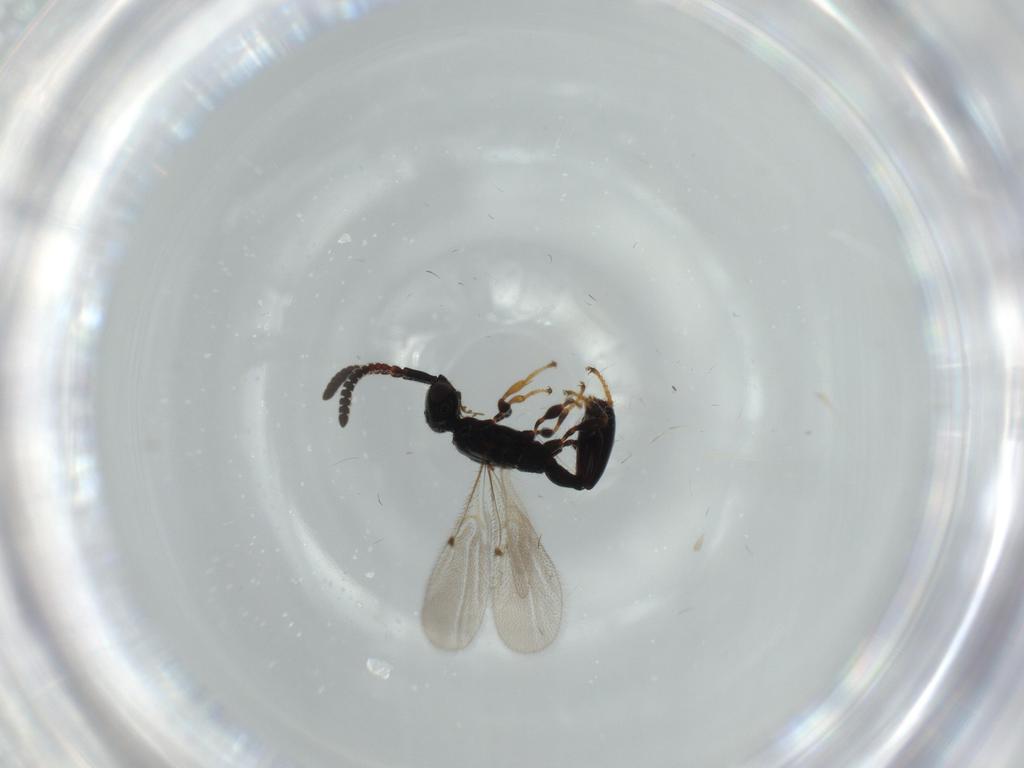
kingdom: Animalia
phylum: Arthropoda
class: Insecta
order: Hymenoptera
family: Diapriidae
